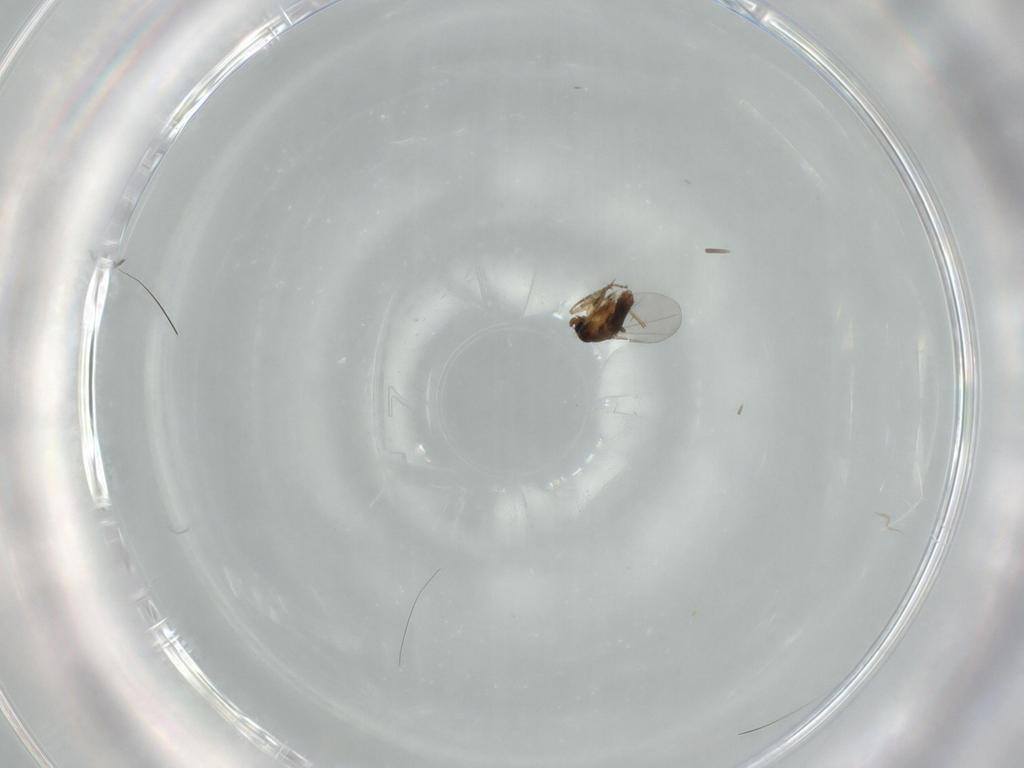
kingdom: Animalia
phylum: Arthropoda
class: Insecta
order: Diptera
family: Phoridae
